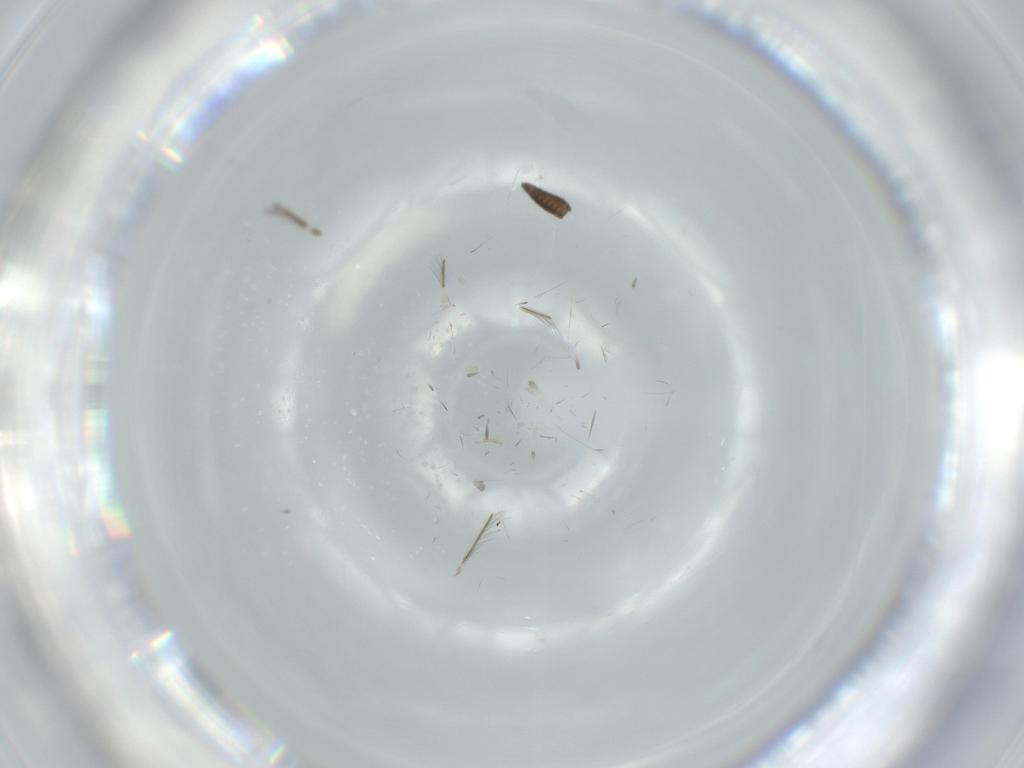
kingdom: Animalia
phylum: Arthropoda
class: Insecta
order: Thysanoptera
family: Thripidae
